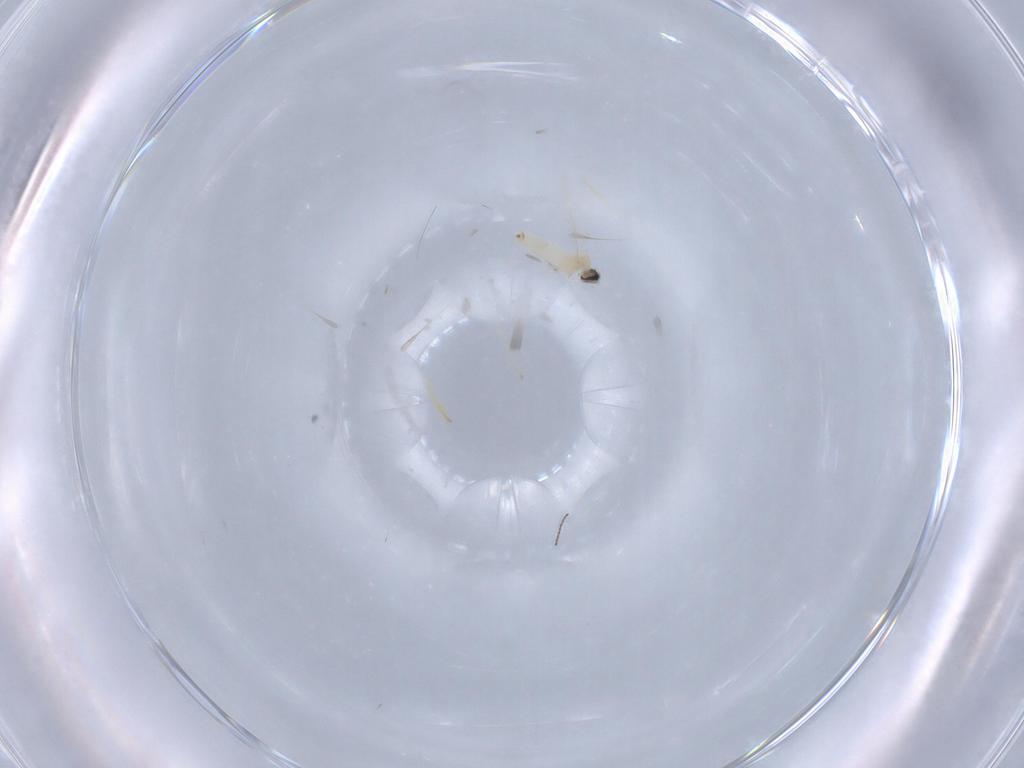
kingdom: Animalia
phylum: Arthropoda
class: Insecta
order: Diptera
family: Cecidomyiidae
